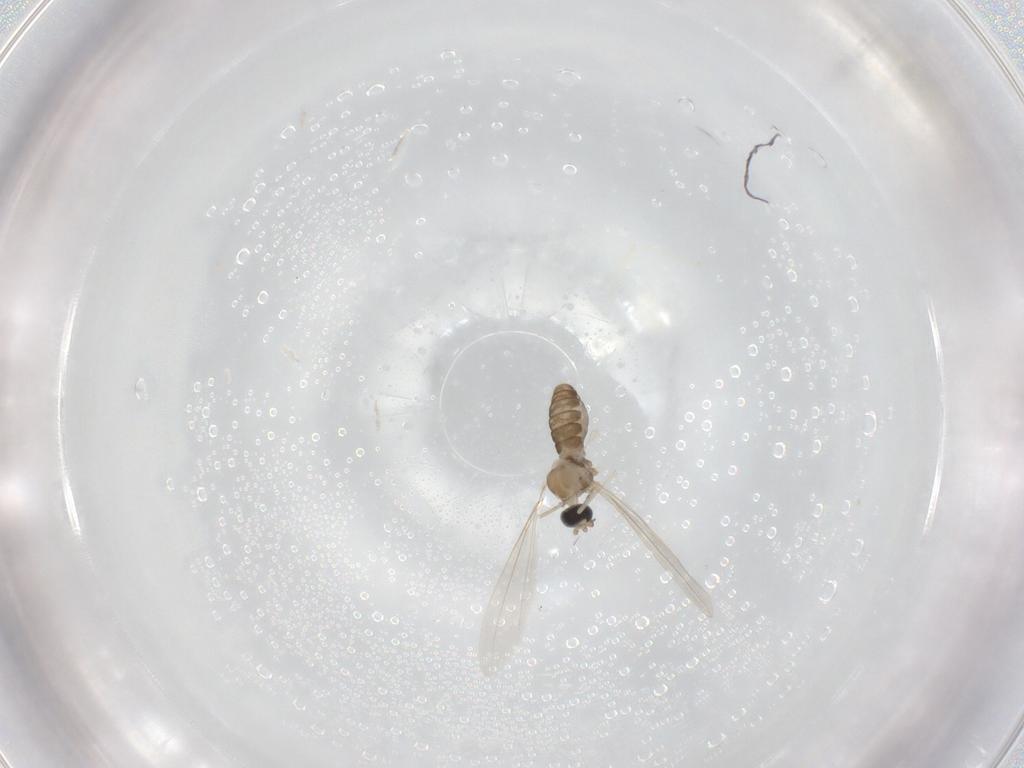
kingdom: Animalia
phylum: Arthropoda
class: Insecta
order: Diptera
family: Cecidomyiidae
